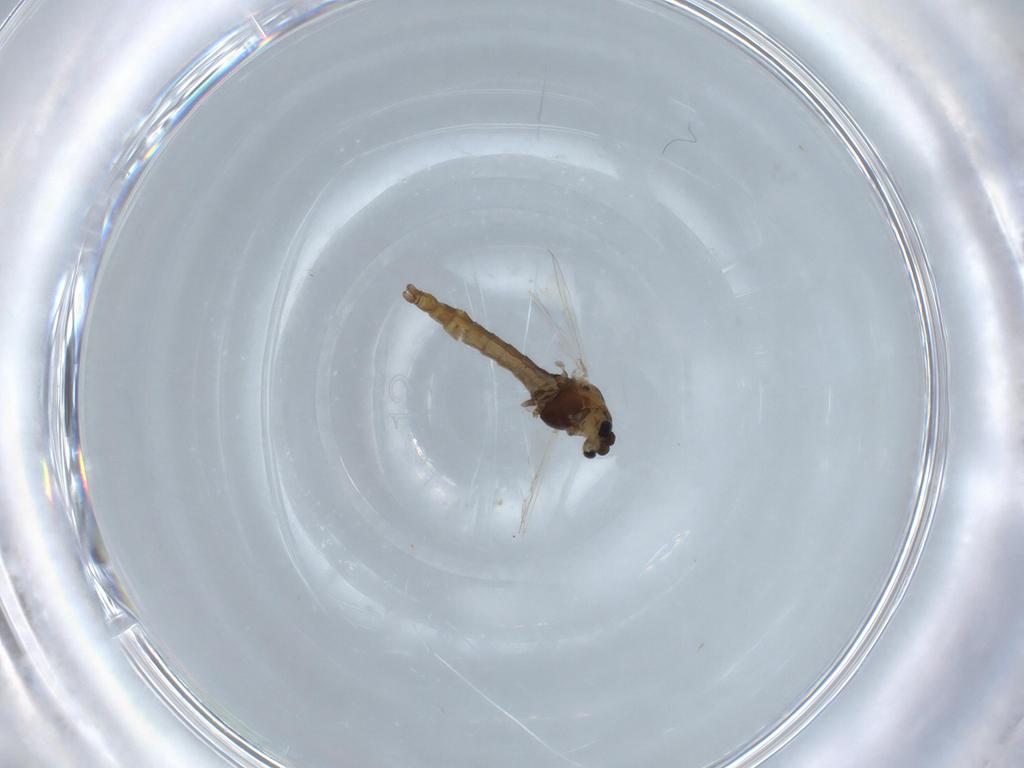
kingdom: Animalia
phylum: Arthropoda
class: Insecta
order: Diptera
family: Chironomidae
